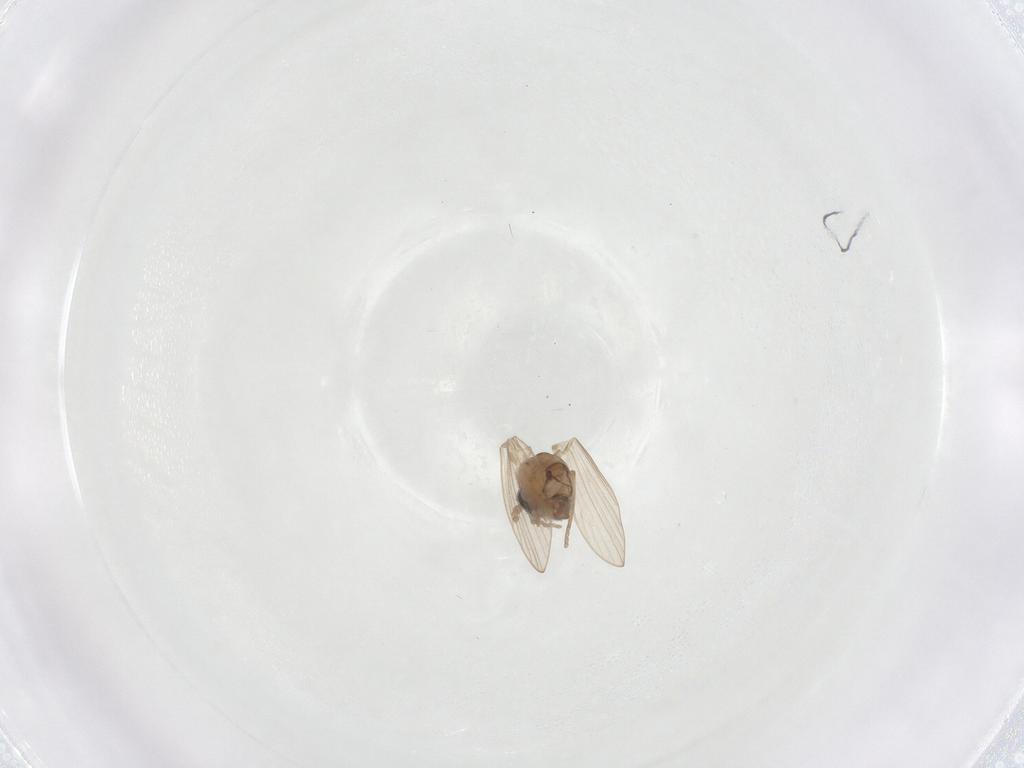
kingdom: Animalia
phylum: Arthropoda
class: Insecta
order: Diptera
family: Psychodidae
